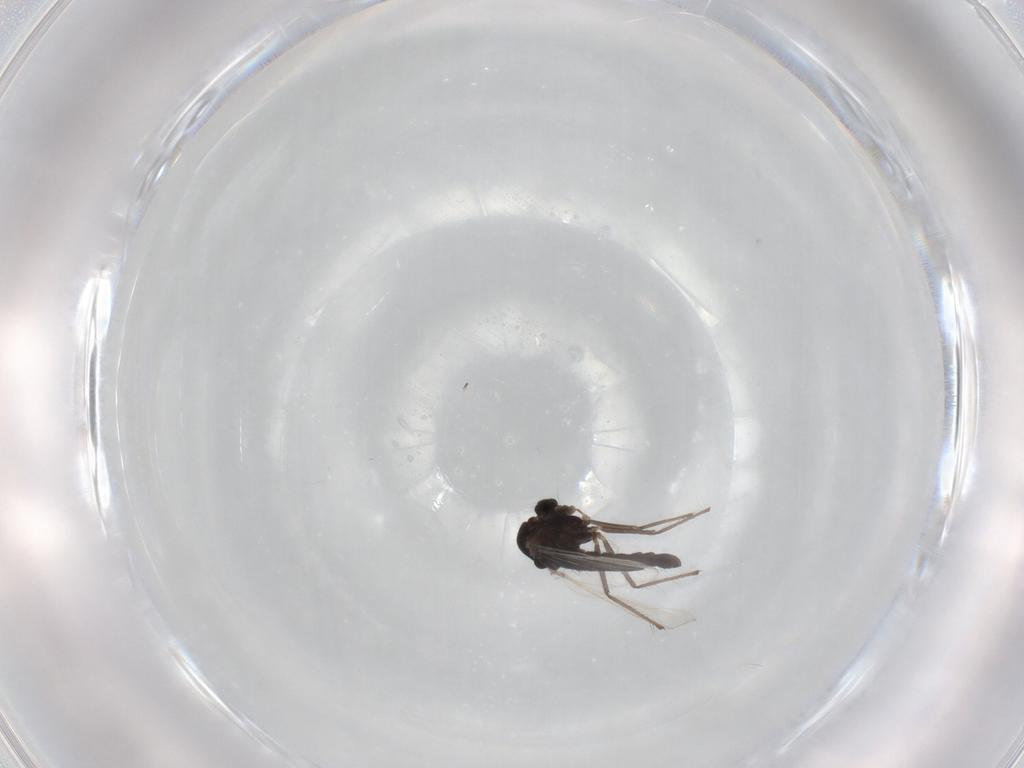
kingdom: Animalia
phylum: Arthropoda
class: Insecta
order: Diptera
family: Chironomidae
